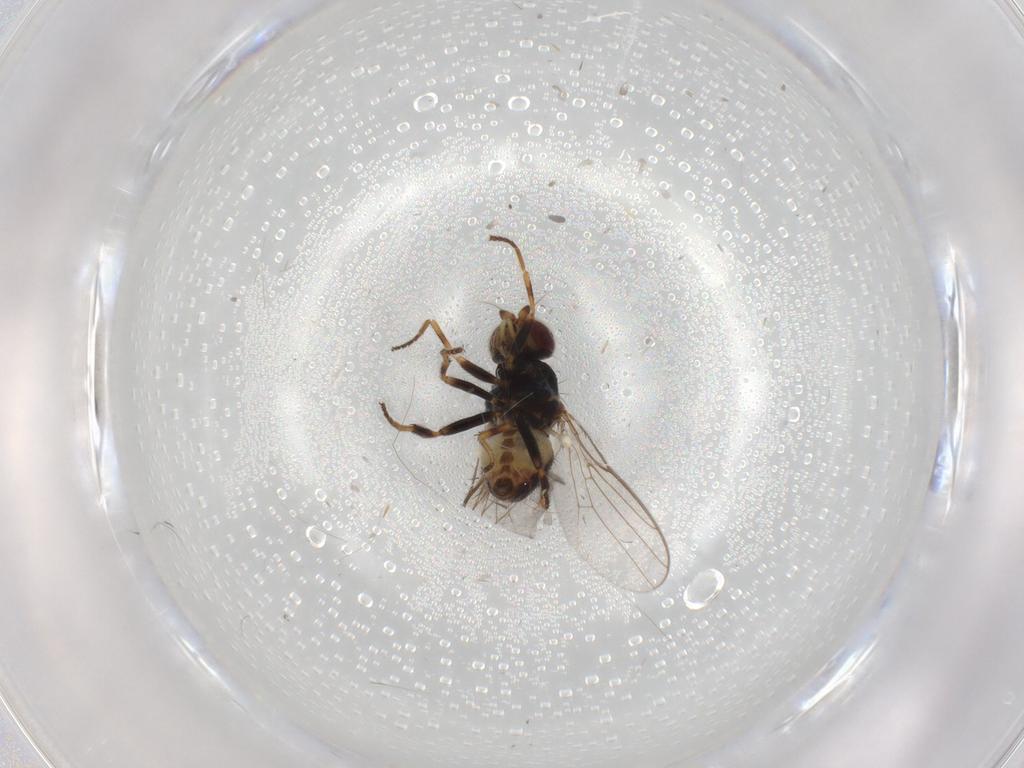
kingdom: Animalia
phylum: Arthropoda
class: Insecta
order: Diptera
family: Chloropidae
